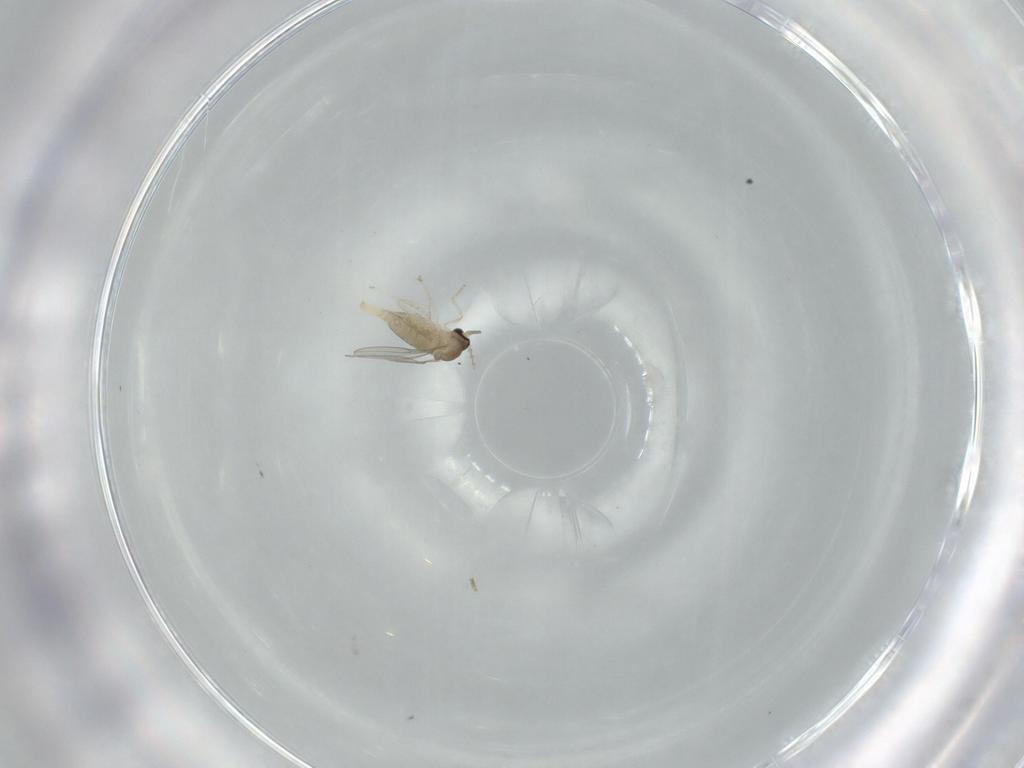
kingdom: Animalia
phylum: Arthropoda
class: Insecta
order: Diptera
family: Cecidomyiidae
